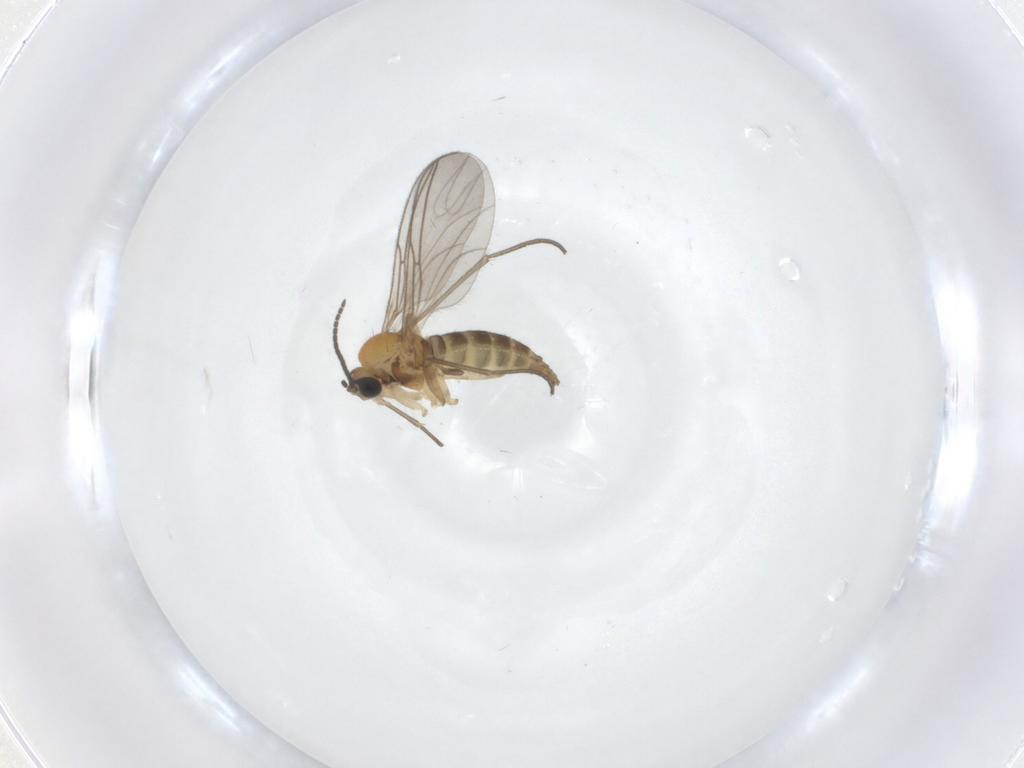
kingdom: Animalia
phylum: Arthropoda
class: Insecta
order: Diptera
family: Sciaridae
